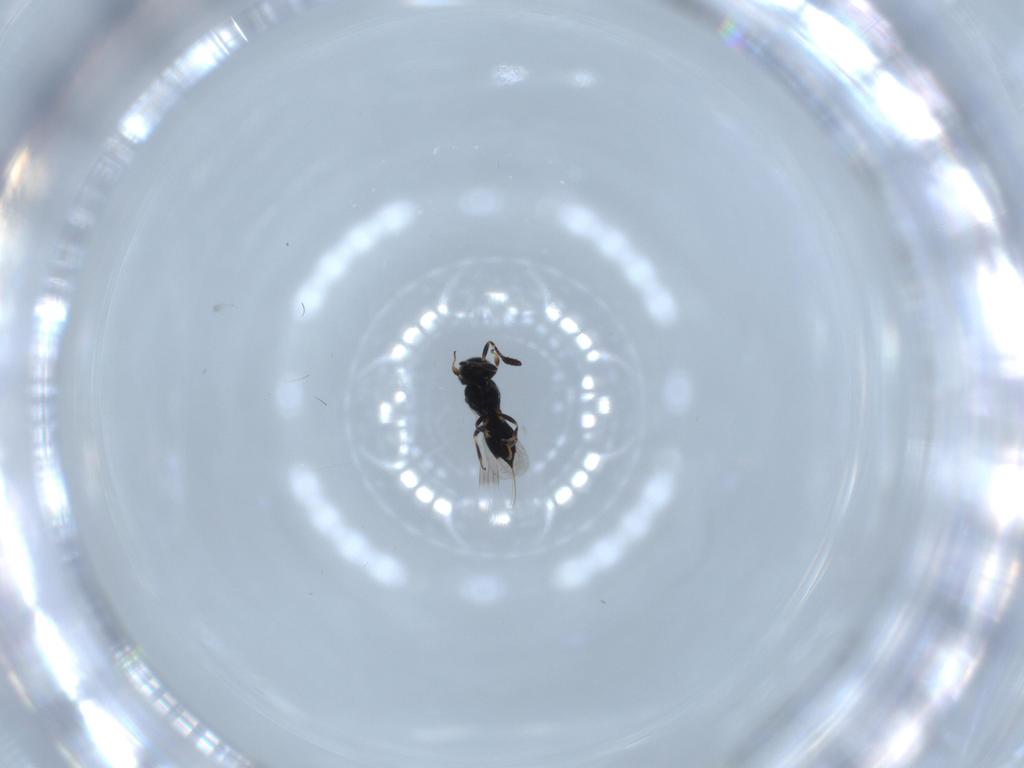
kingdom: Animalia
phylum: Arthropoda
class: Insecta
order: Hymenoptera
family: Scelionidae
